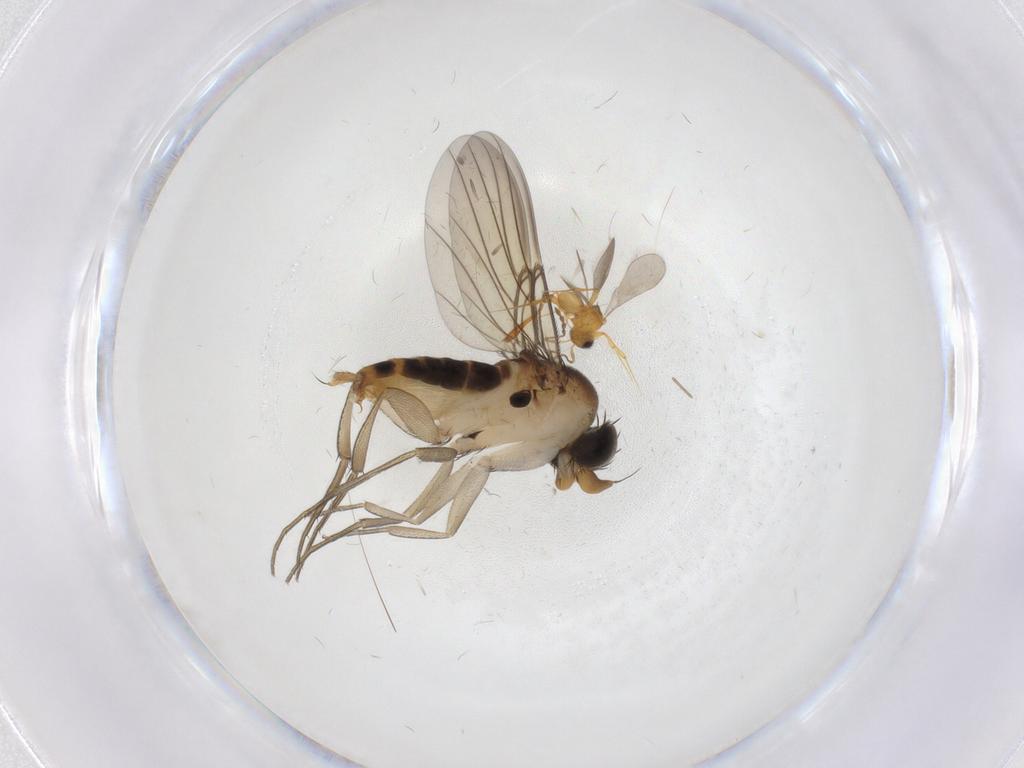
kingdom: Animalia
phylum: Arthropoda
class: Insecta
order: Diptera
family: Phoridae
